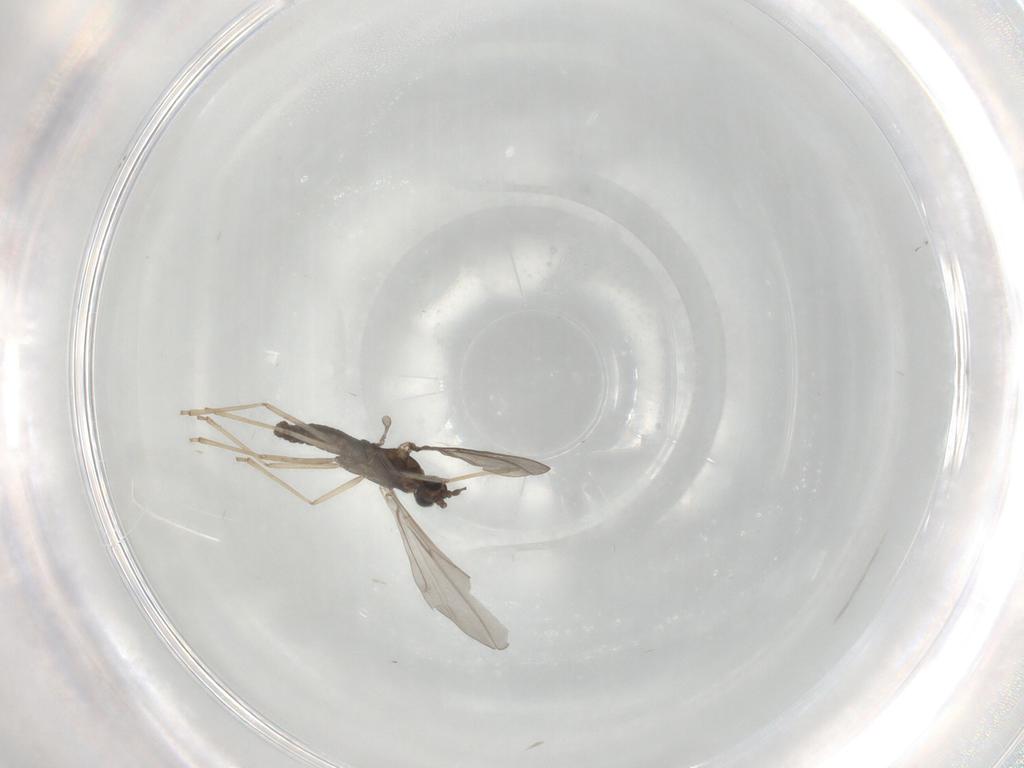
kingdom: Animalia
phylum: Arthropoda
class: Insecta
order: Diptera
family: Cecidomyiidae
